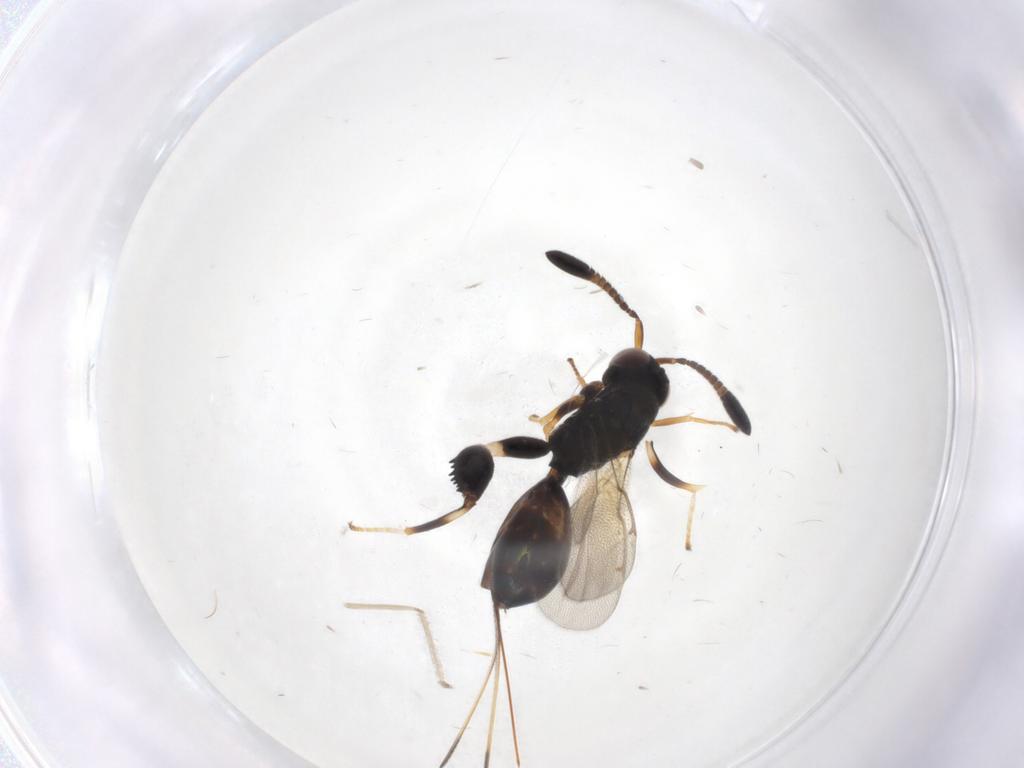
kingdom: Animalia
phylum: Arthropoda
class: Insecta
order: Hymenoptera
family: Torymidae
